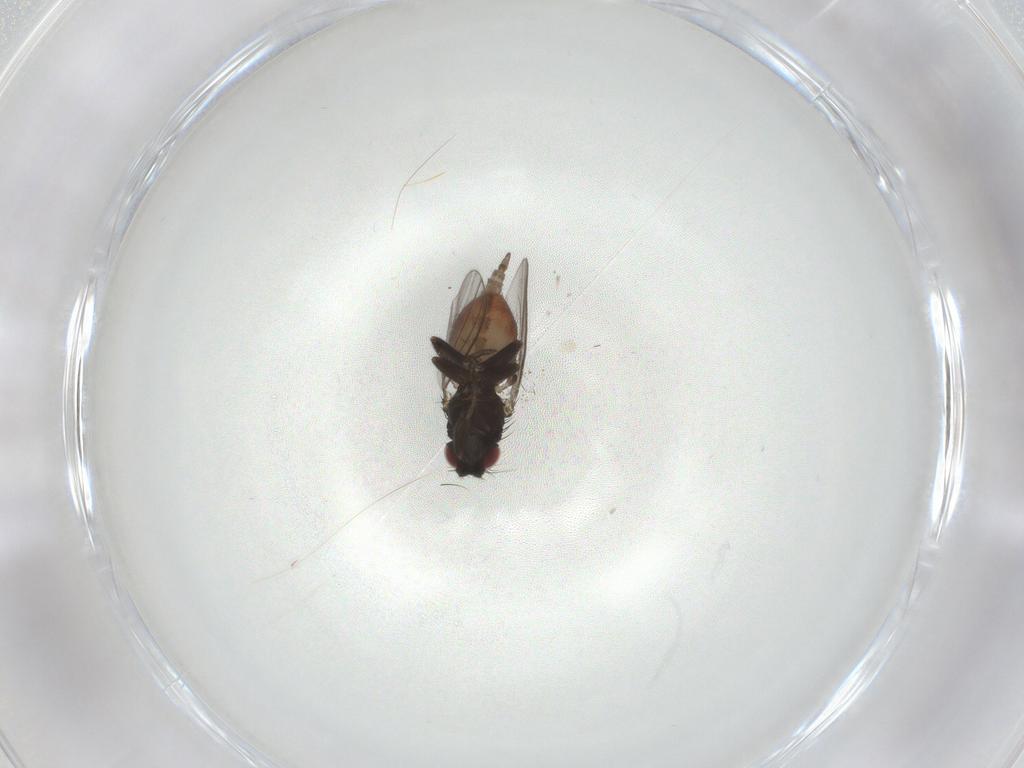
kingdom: Animalia
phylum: Arthropoda
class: Insecta
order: Diptera
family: Milichiidae
